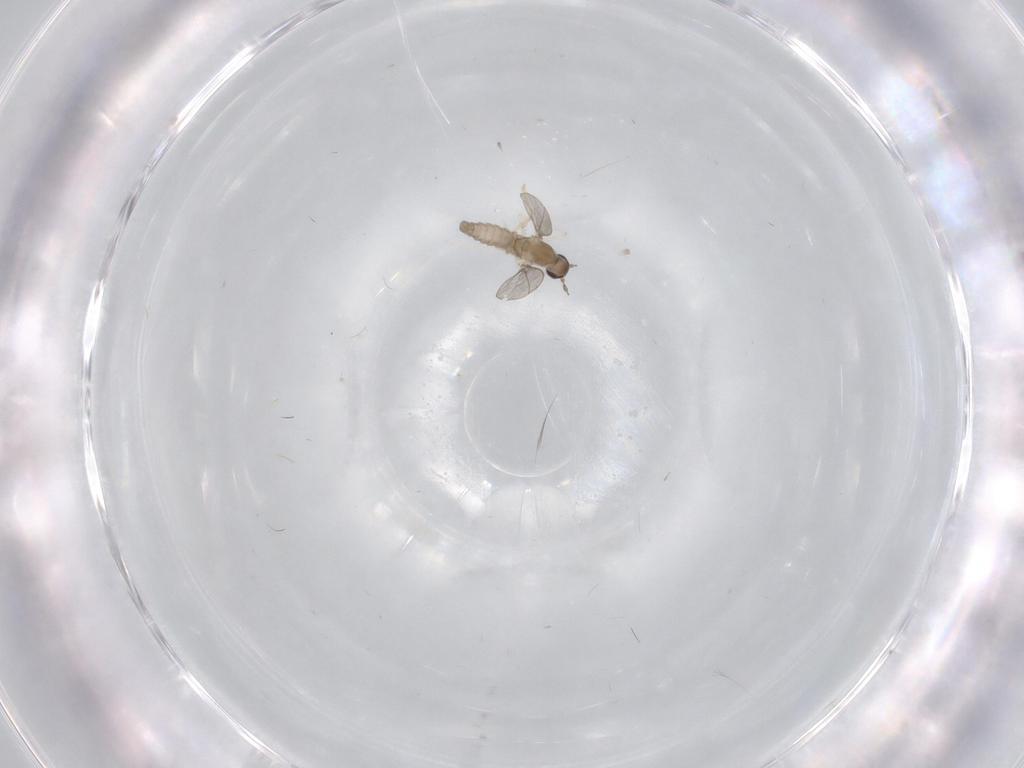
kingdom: Animalia
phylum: Arthropoda
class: Insecta
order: Diptera
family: Cecidomyiidae
